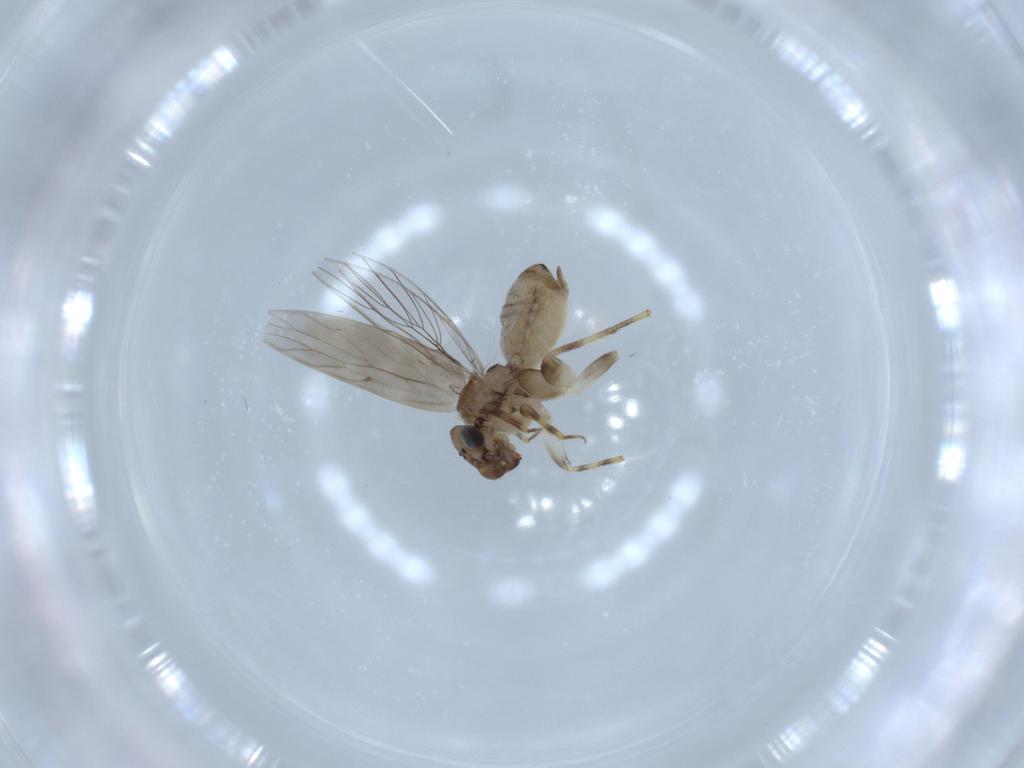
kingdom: Animalia
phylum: Arthropoda
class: Insecta
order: Psocodea
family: Lepidopsocidae
